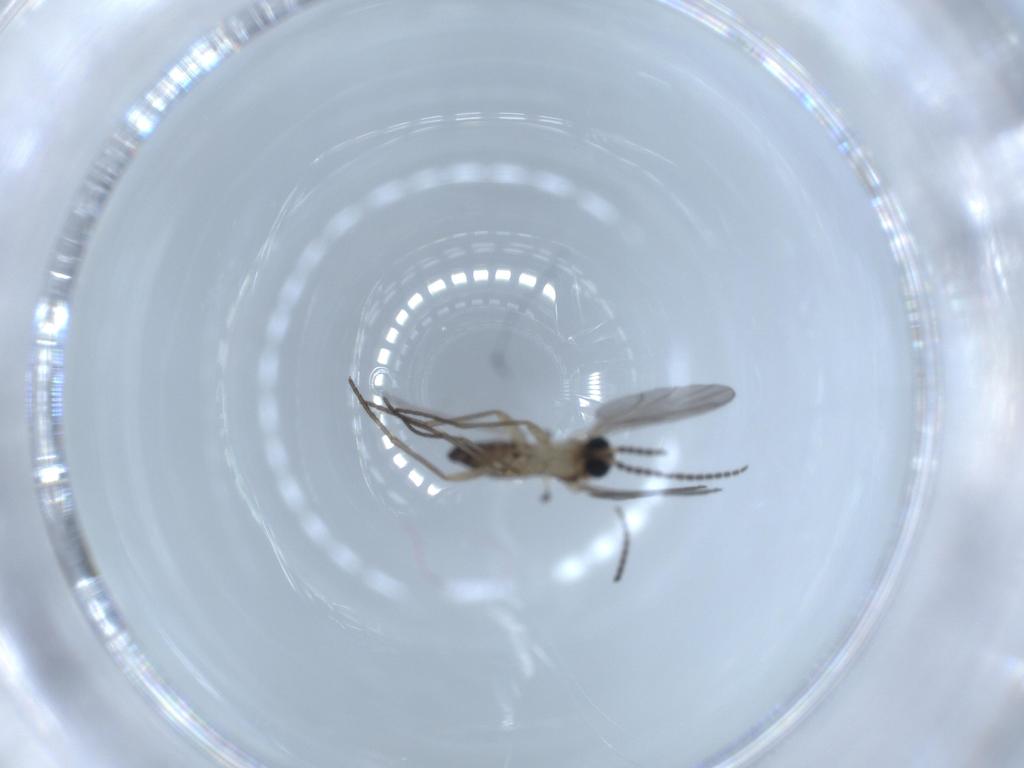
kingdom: Animalia
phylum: Arthropoda
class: Insecta
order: Diptera
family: Sciaridae
